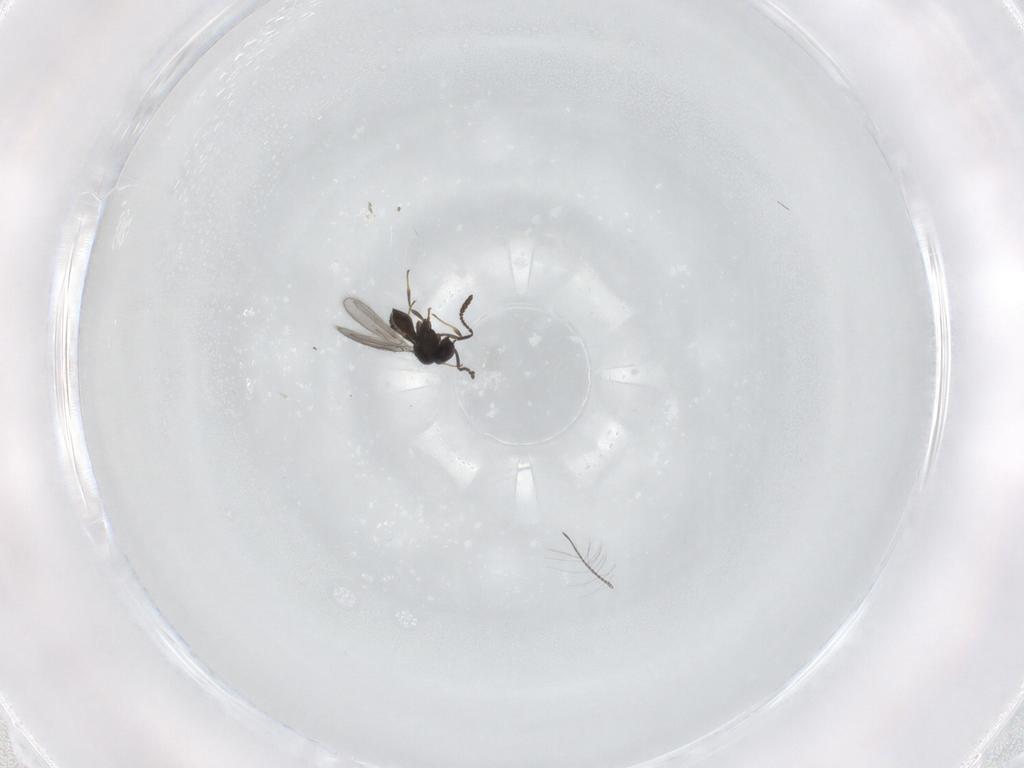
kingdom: Animalia
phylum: Arthropoda
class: Insecta
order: Hymenoptera
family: Scelionidae
